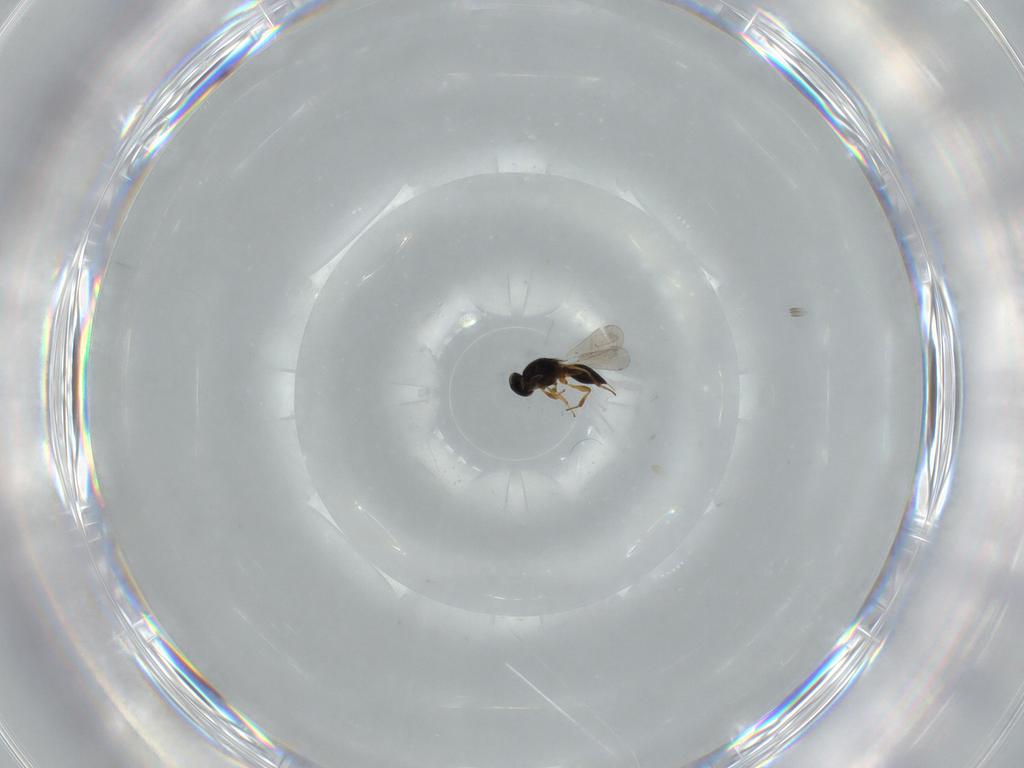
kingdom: Animalia
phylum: Arthropoda
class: Insecta
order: Hymenoptera
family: Platygastridae
